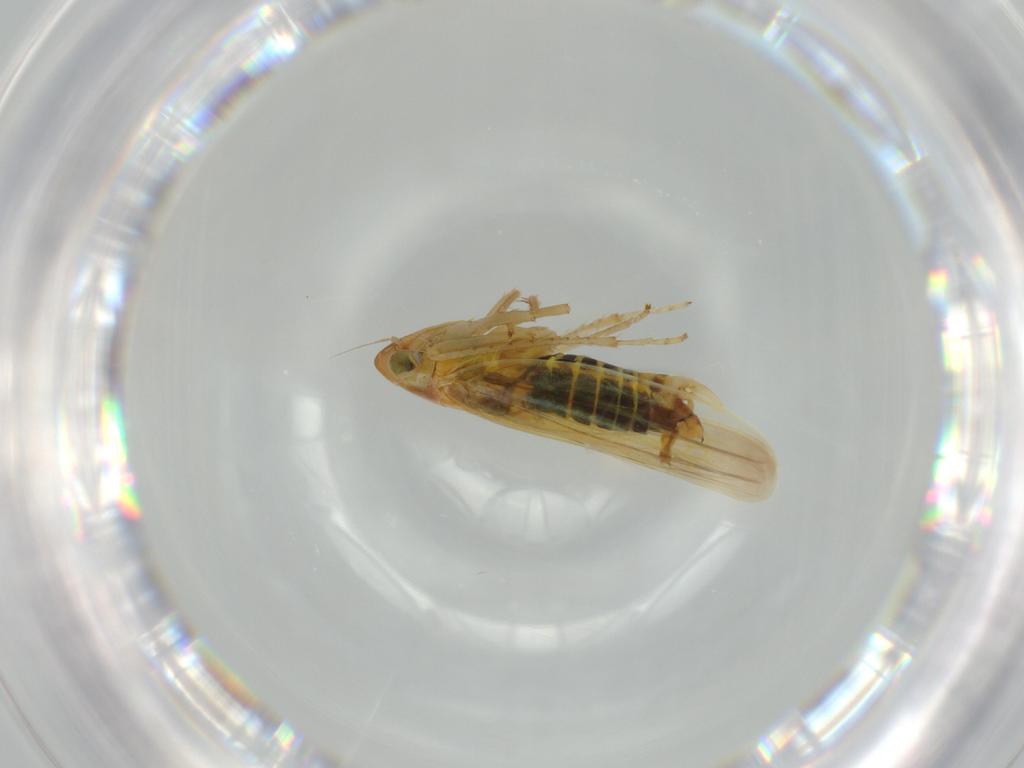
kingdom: Animalia
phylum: Arthropoda
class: Insecta
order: Hemiptera
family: Cicadellidae
